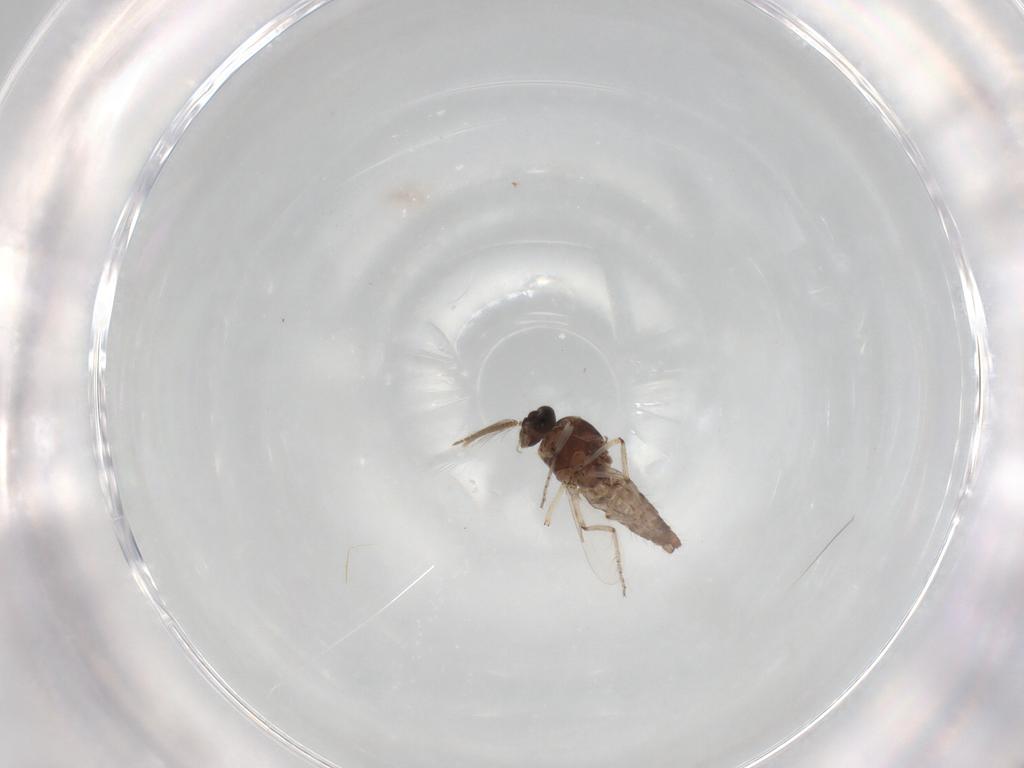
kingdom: Animalia
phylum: Arthropoda
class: Insecta
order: Diptera
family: Ceratopogonidae
